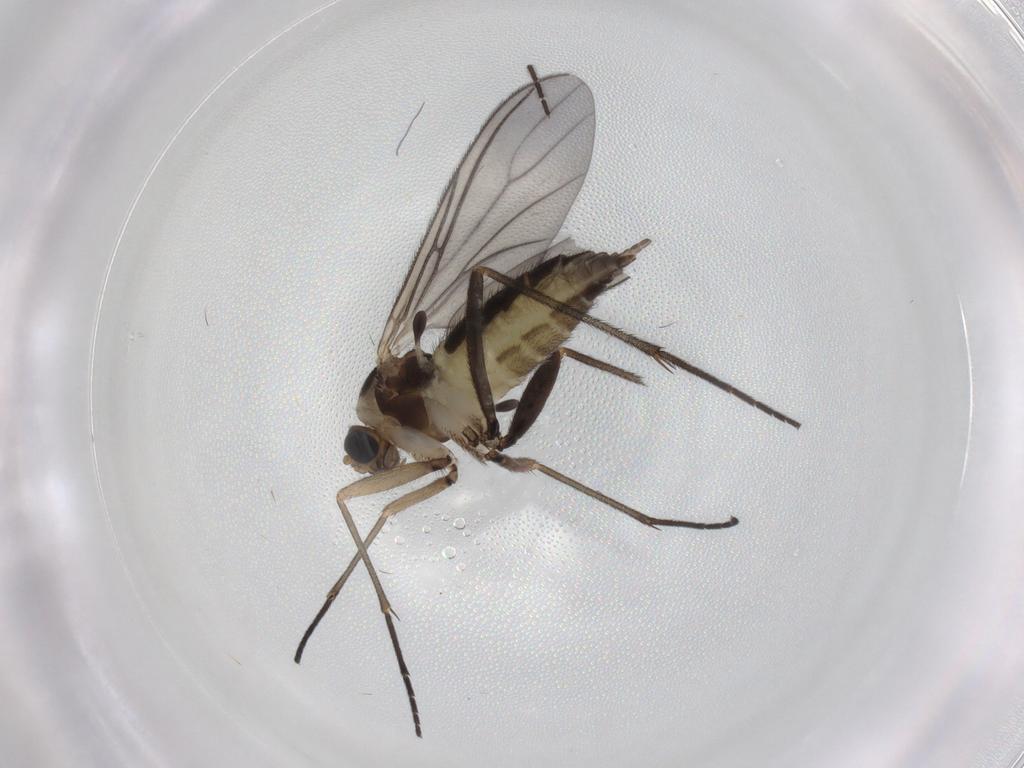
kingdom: Animalia
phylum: Arthropoda
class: Insecta
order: Diptera
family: Sciaridae
